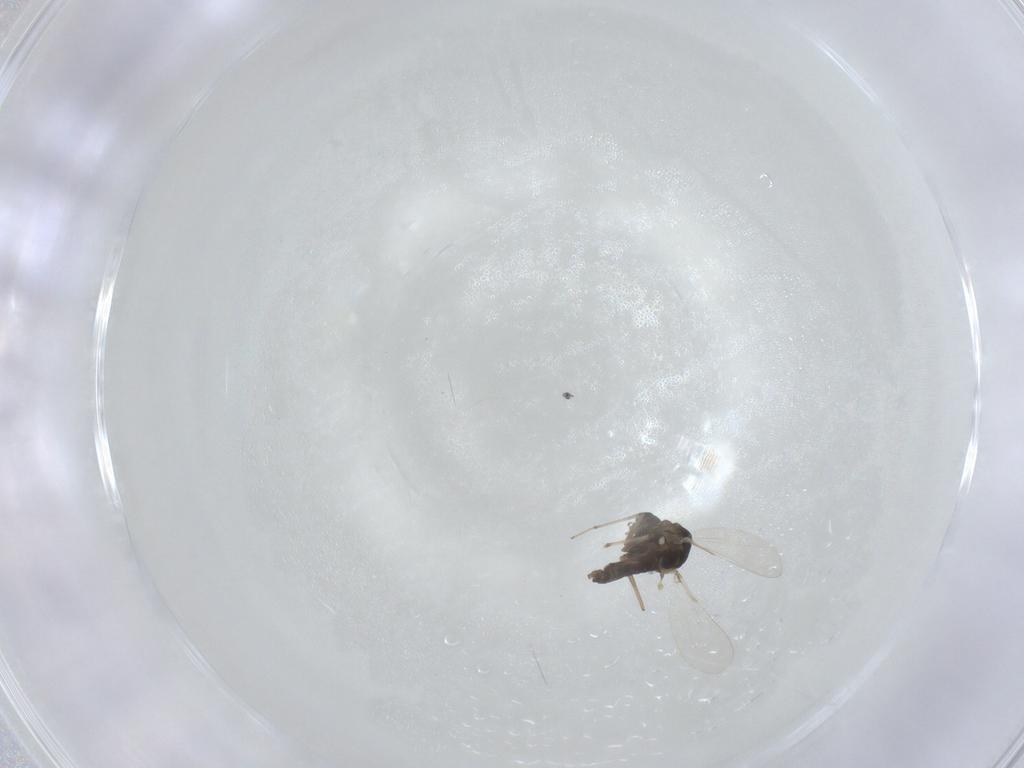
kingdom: Animalia
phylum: Arthropoda
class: Insecta
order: Diptera
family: Chironomidae
